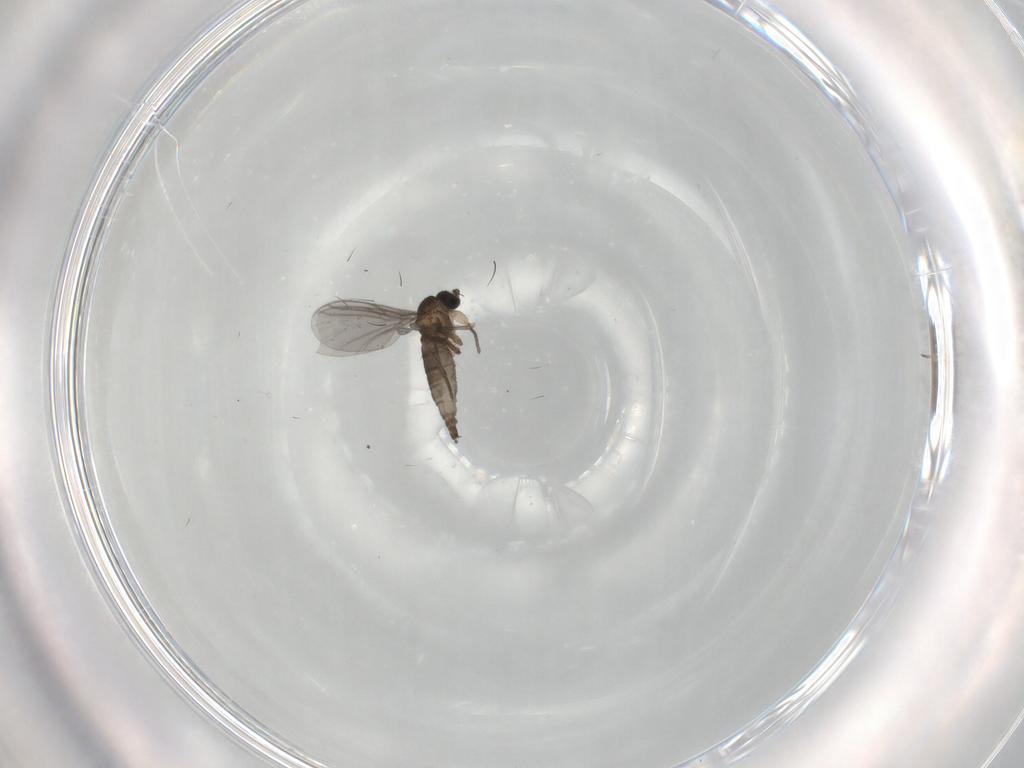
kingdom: Animalia
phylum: Arthropoda
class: Insecta
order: Diptera
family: Sciaridae
